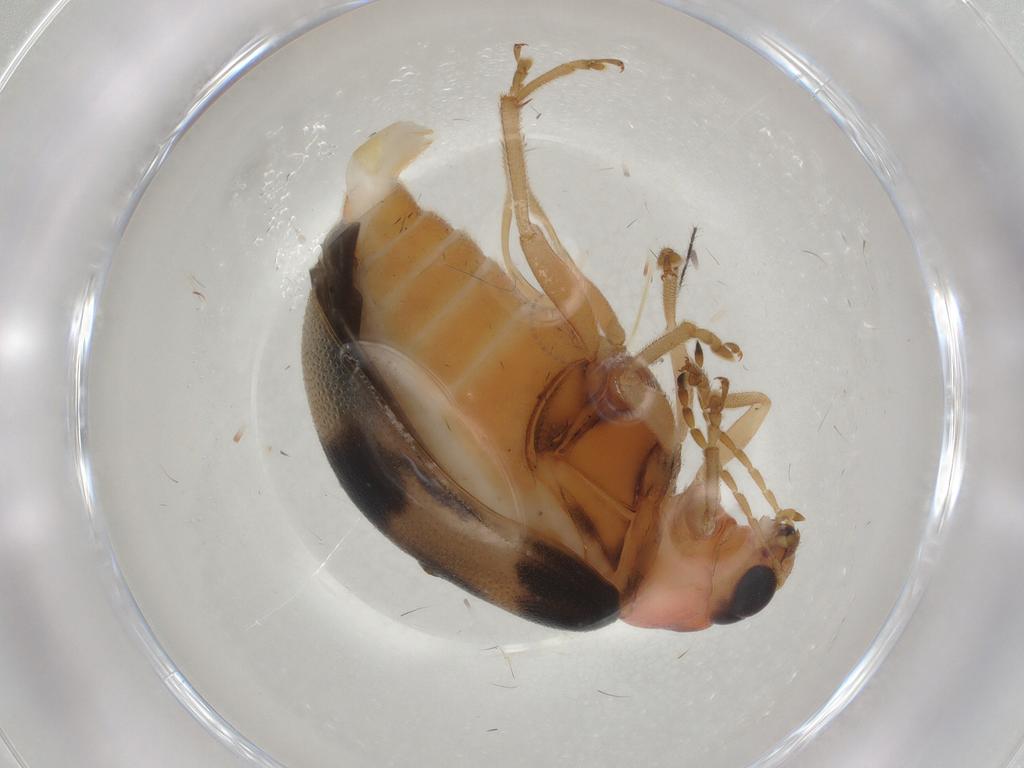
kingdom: Animalia
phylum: Arthropoda
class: Insecta
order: Coleoptera
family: Chrysomelidae
